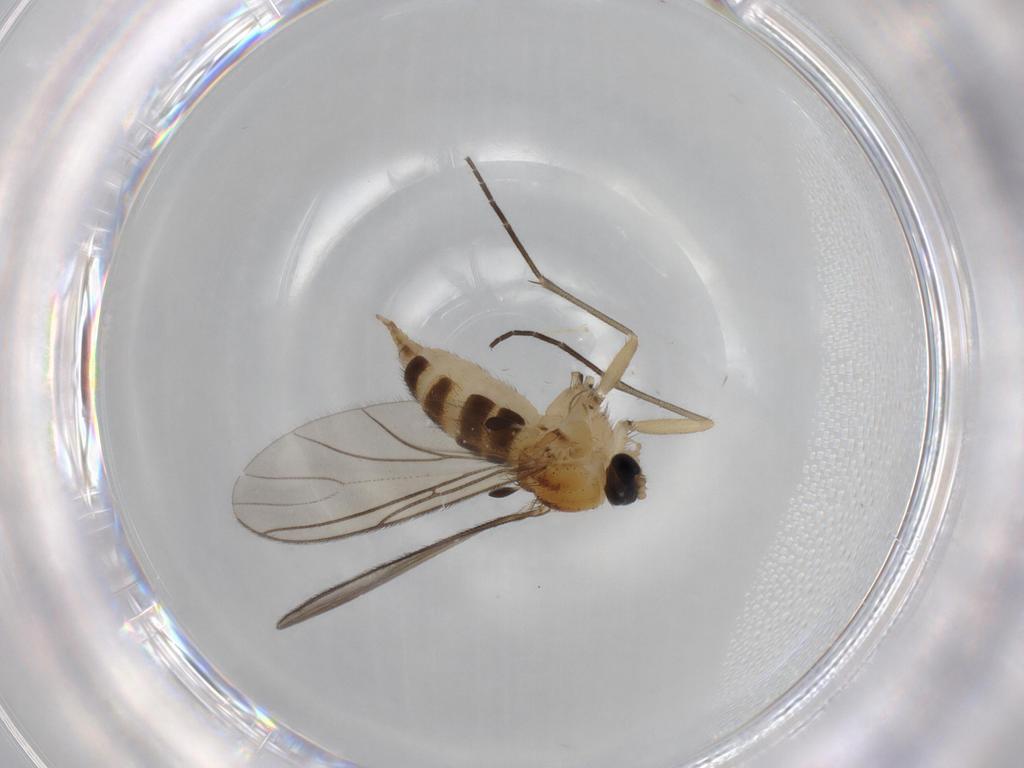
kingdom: Animalia
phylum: Arthropoda
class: Insecta
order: Diptera
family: Sciaridae
